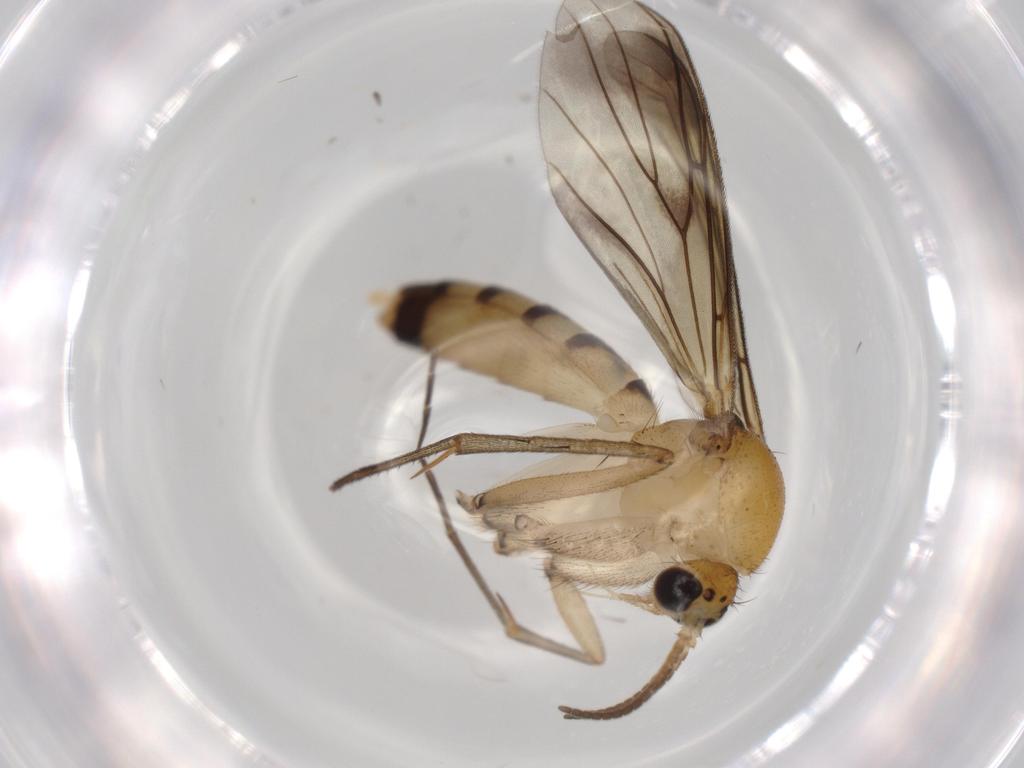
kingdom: Animalia
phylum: Arthropoda
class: Insecta
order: Diptera
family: Mycetophilidae
